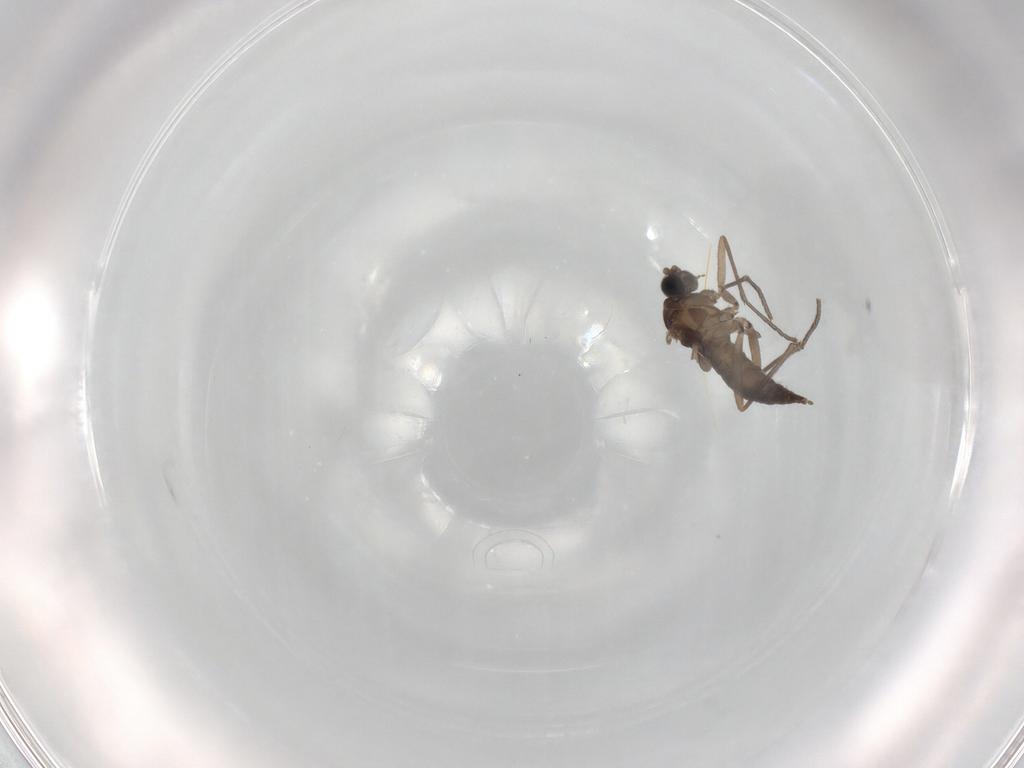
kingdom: Animalia
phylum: Arthropoda
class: Insecta
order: Diptera
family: Sciaridae
